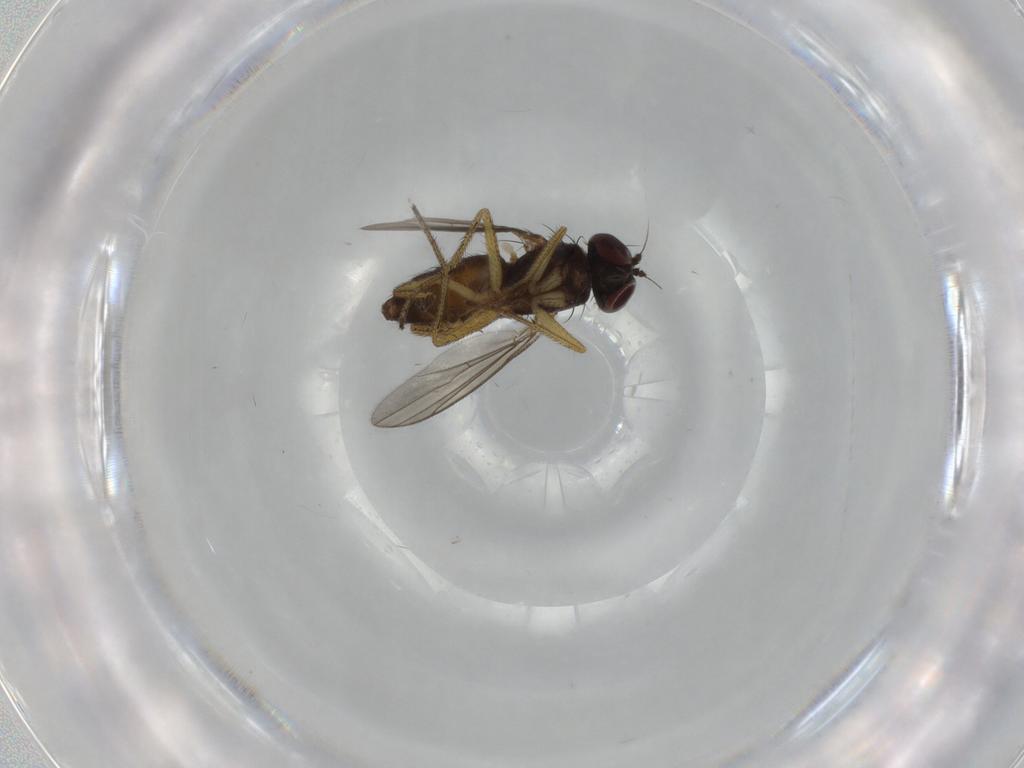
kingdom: Animalia
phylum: Arthropoda
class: Insecta
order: Diptera
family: Dolichopodidae
